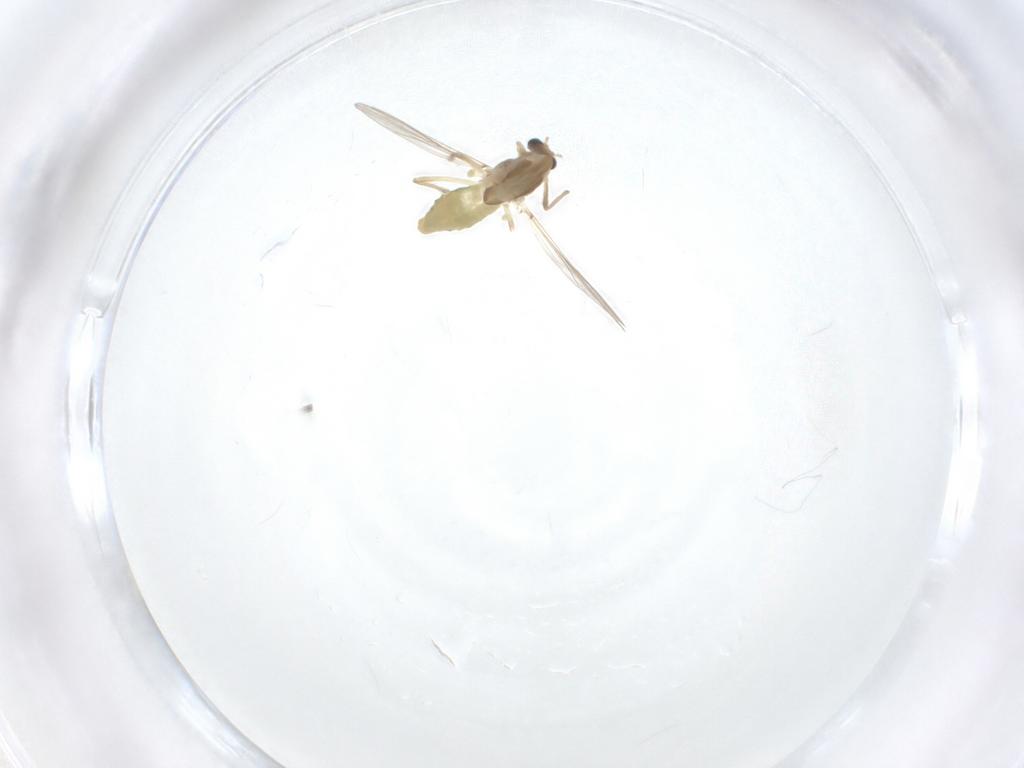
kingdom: Animalia
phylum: Arthropoda
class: Insecta
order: Diptera
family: Chironomidae
